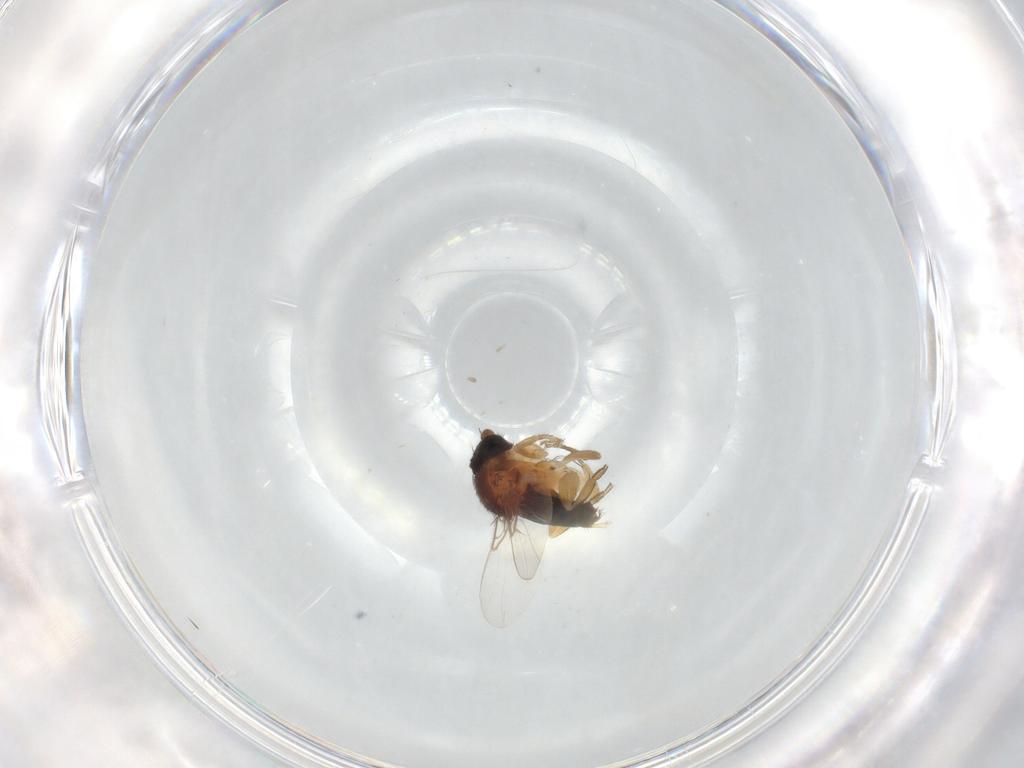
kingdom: Animalia
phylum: Arthropoda
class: Insecta
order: Diptera
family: Phoridae
